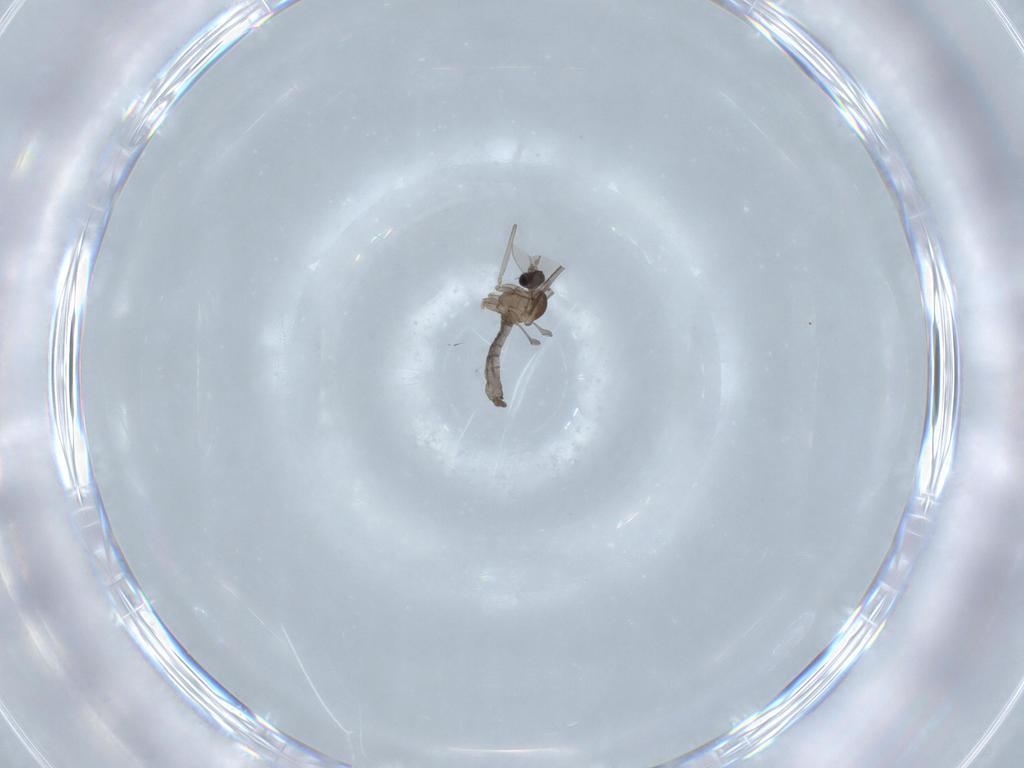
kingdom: Animalia
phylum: Arthropoda
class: Insecta
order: Diptera
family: Cecidomyiidae
